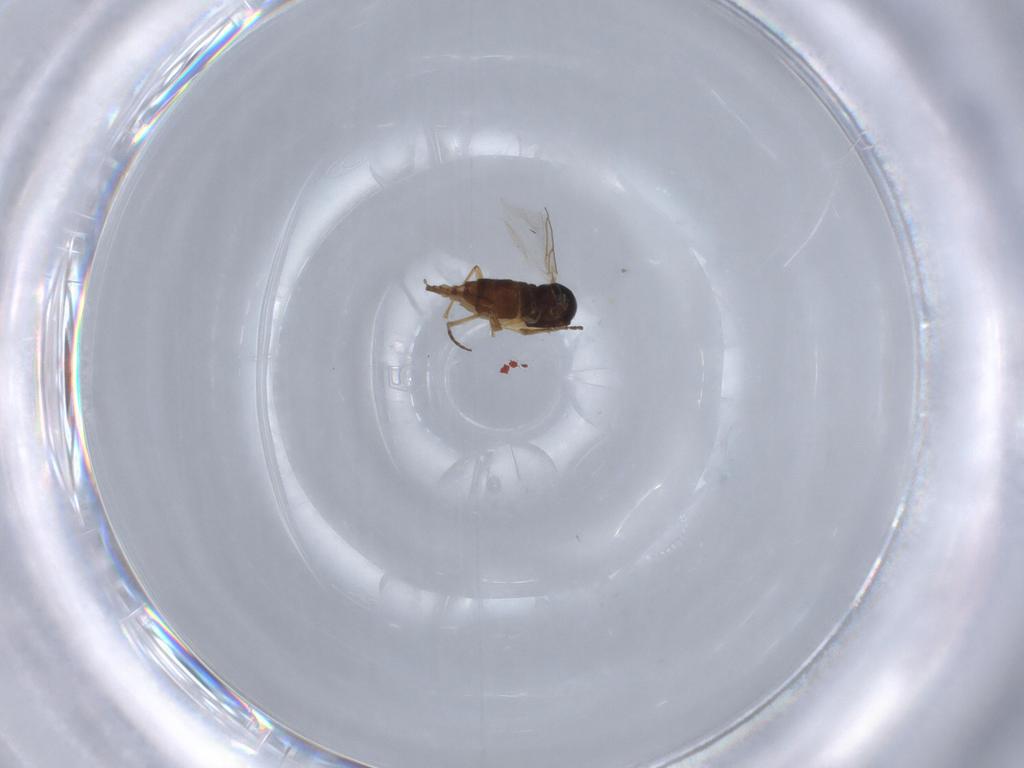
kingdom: Animalia
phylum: Arthropoda
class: Insecta
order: Diptera
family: Sciaridae
